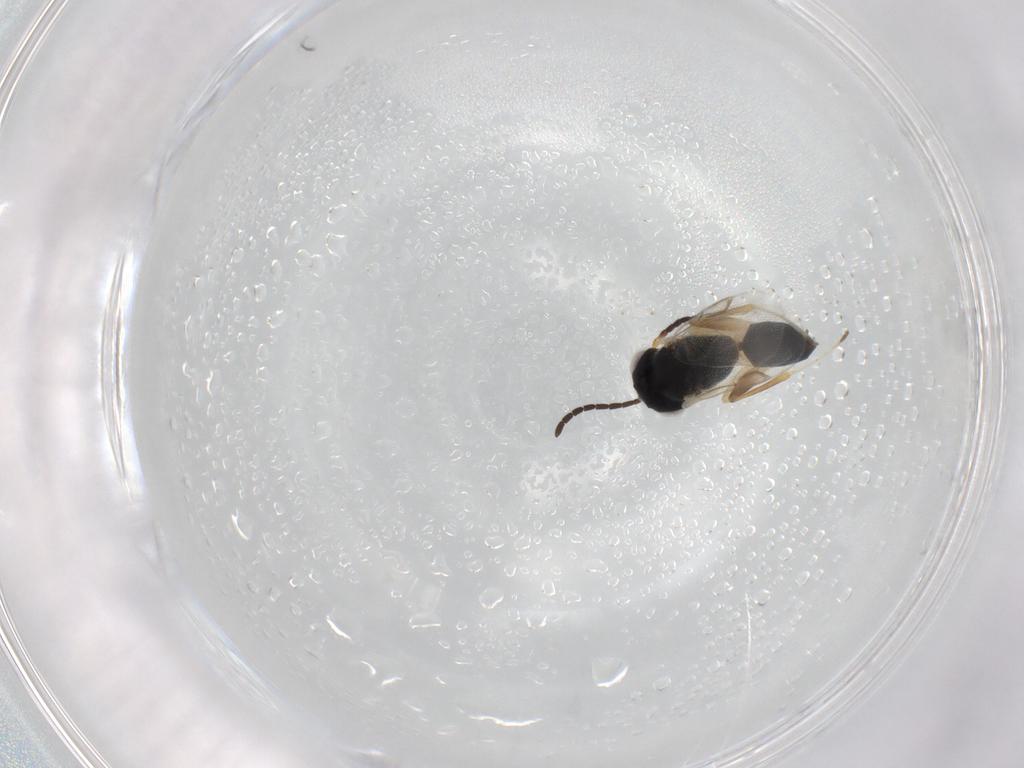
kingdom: Animalia
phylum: Arthropoda
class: Insecta
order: Hymenoptera
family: Dryinidae
